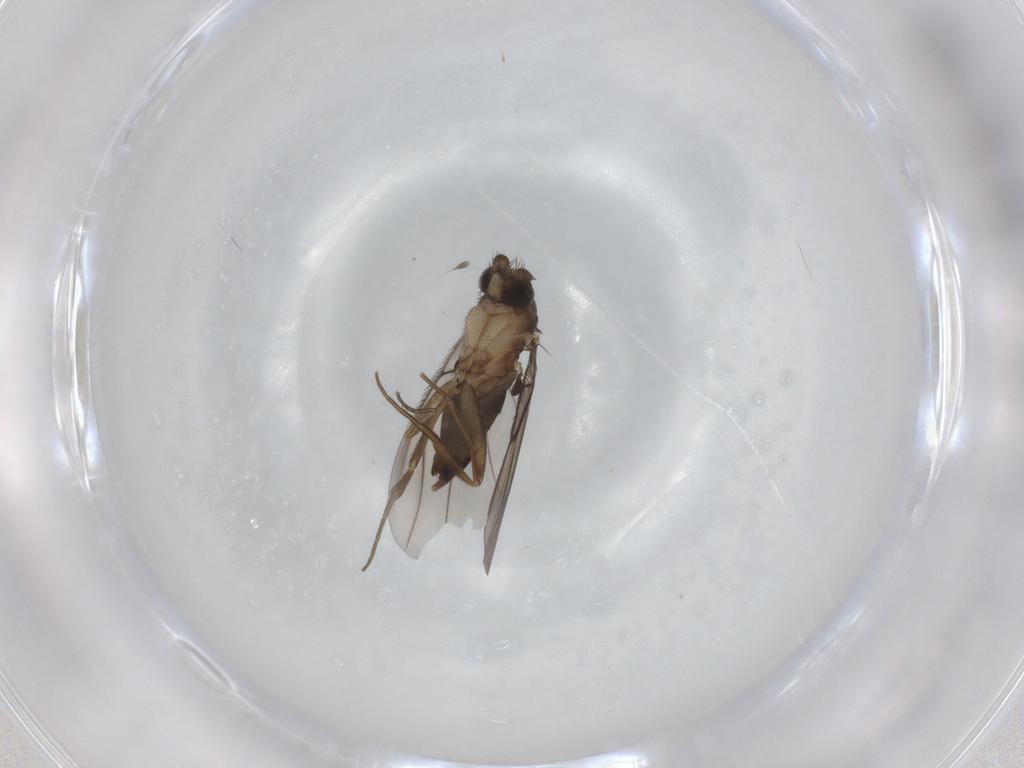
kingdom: Animalia
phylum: Arthropoda
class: Insecta
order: Diptera
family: Phoridae
